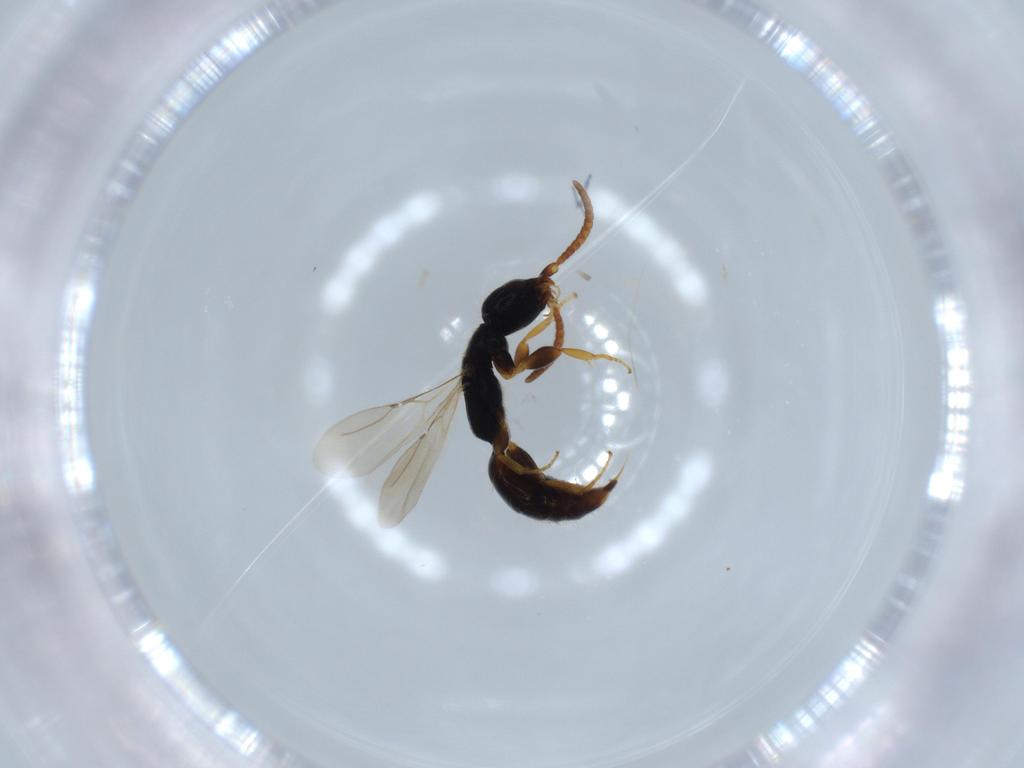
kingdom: Animalia
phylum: Arthropoda
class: Insecta
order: Hymenoptera
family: Bethylidae
